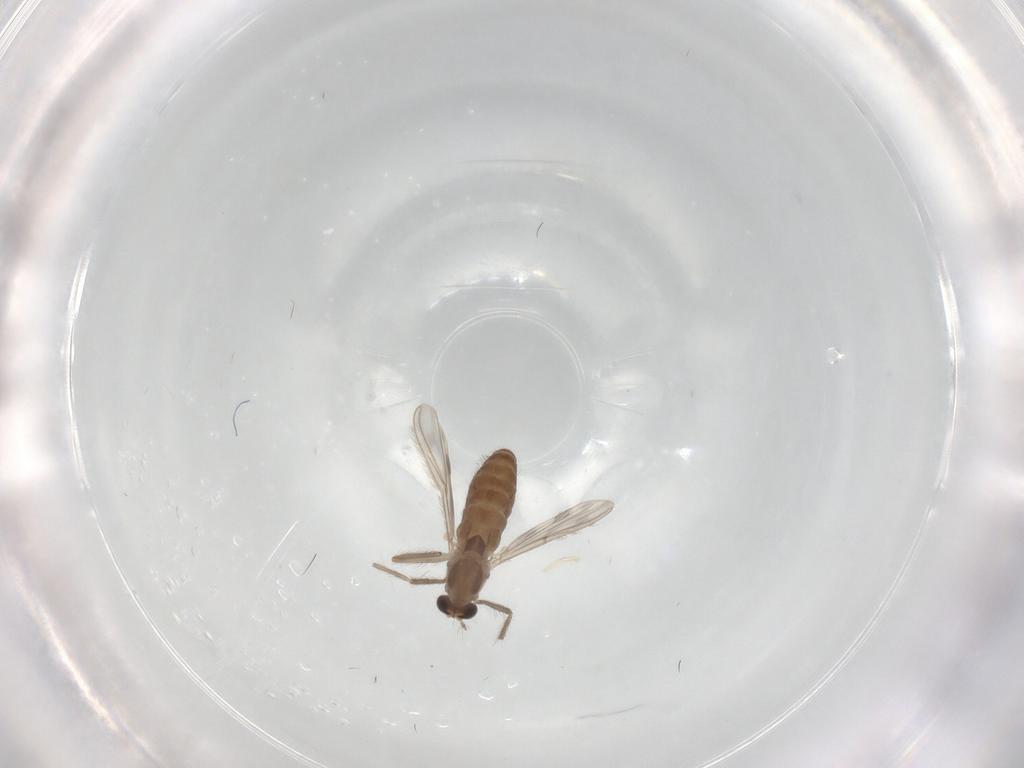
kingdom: Animalia
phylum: Arthropoda
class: Insecta
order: Diptera
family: Chironomidae
